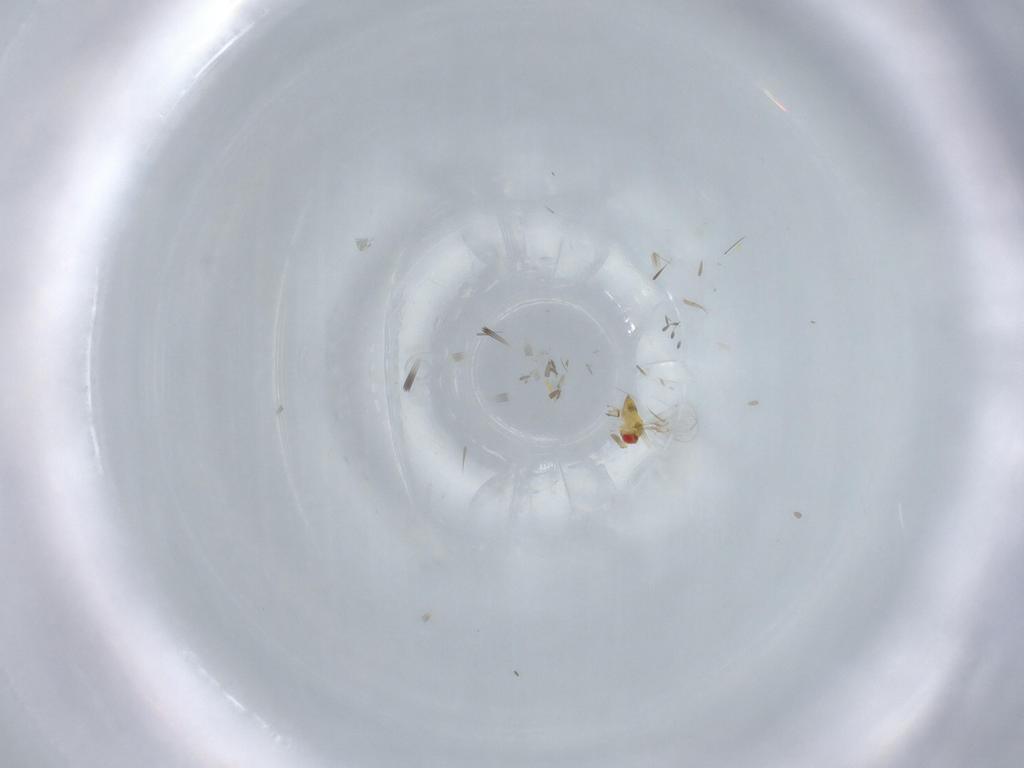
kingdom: Animalia
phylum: Arthropoda
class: Insecta
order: Hymenoptera
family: Trichogrammatidae
